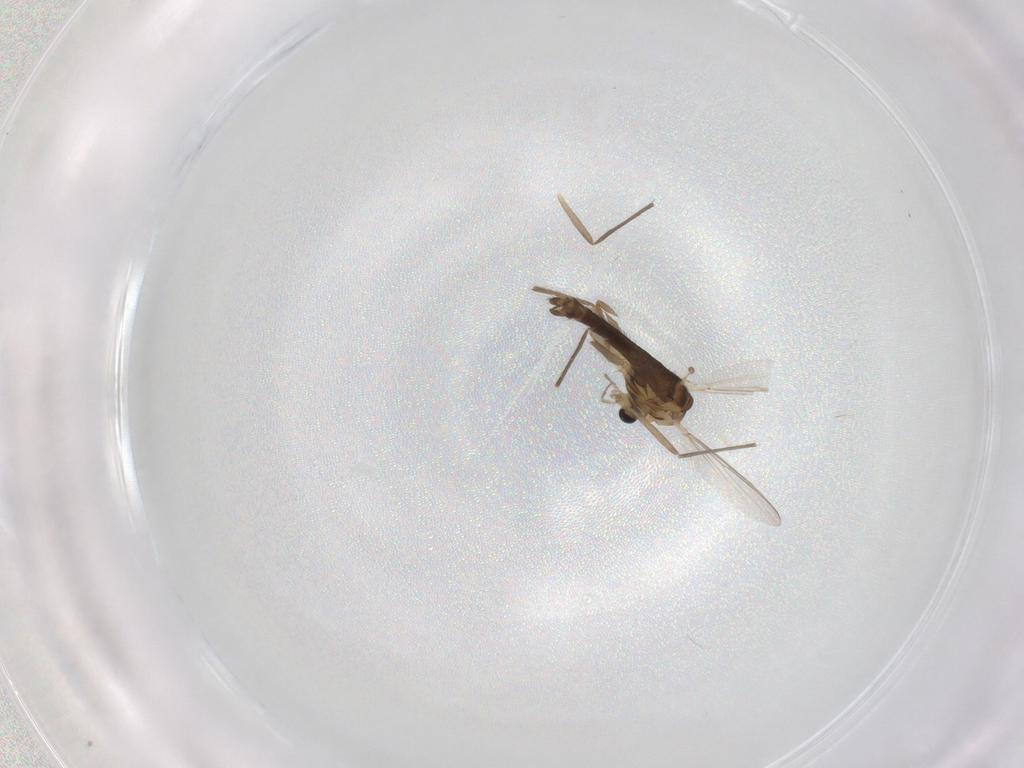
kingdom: Animalia
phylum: Arthropoda
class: Insecta
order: Diptera
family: Chironomidae
